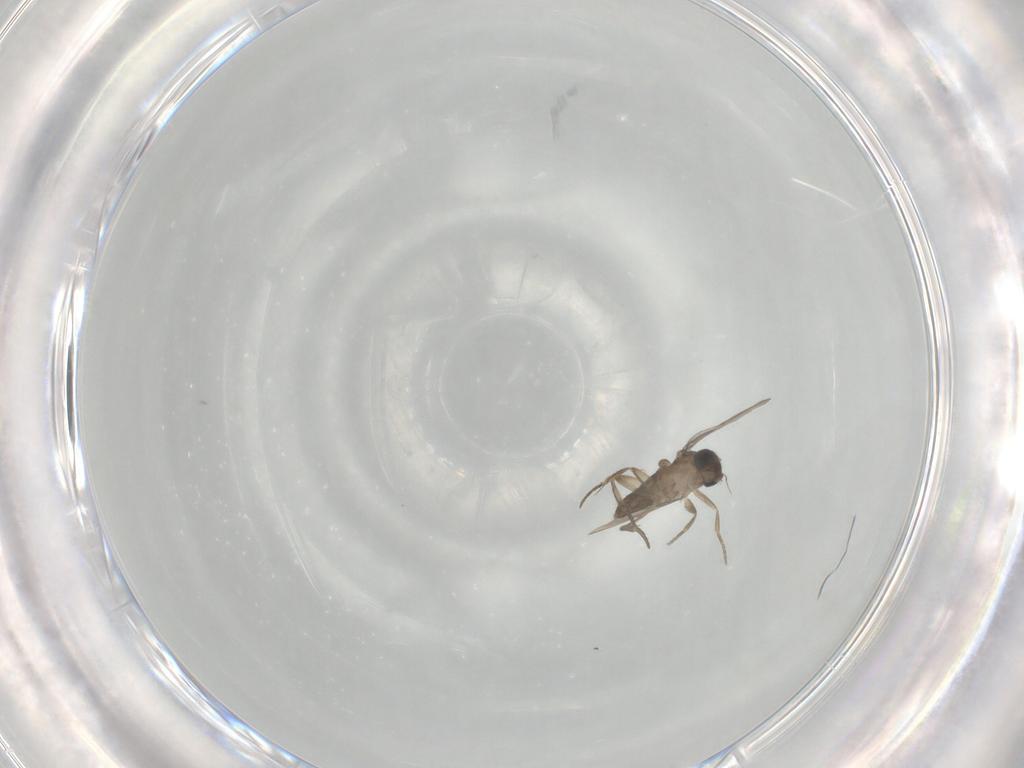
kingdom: Animalia
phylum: Arthropoda
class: Insecta
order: Diptera
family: Phoridae
